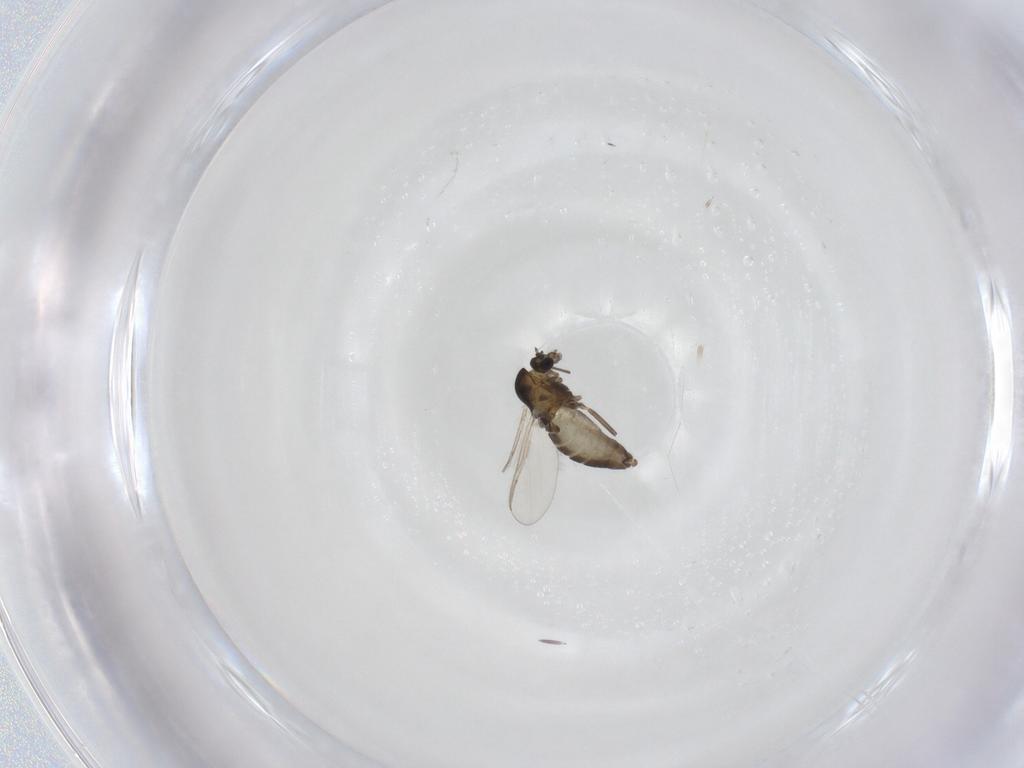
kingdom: Animalia
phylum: Arthropoda
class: Insecta
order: Diptera
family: Chironomidae
